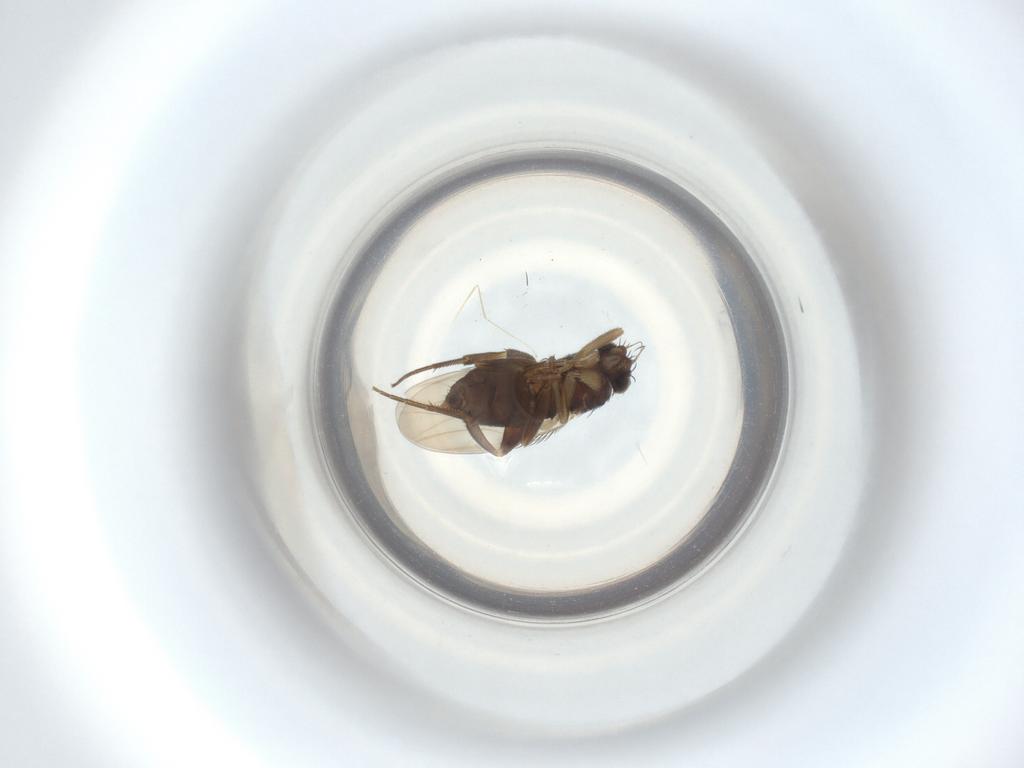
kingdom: Animalia
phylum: Arthropoda
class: Insecta
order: Diptera
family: Phoridae
